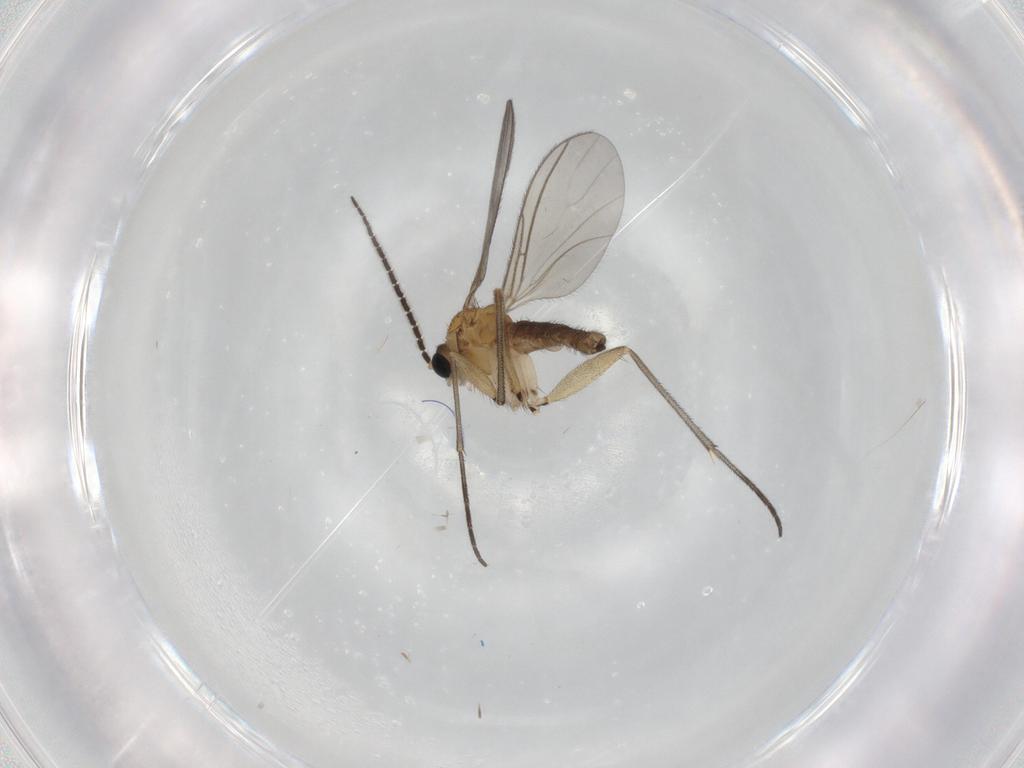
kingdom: Animalia
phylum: Arthropoda
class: Insecta
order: Diptera
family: Sciaridae
